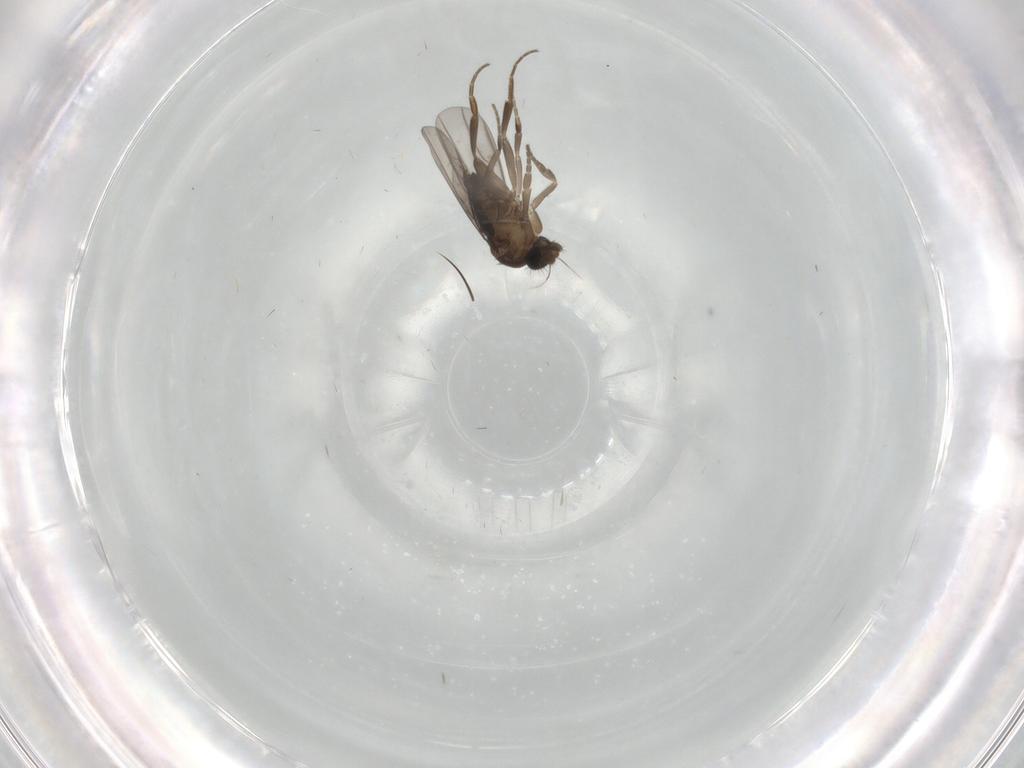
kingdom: Animalia
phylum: Arthropoda
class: Insecta
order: Diptera
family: Phoridae
